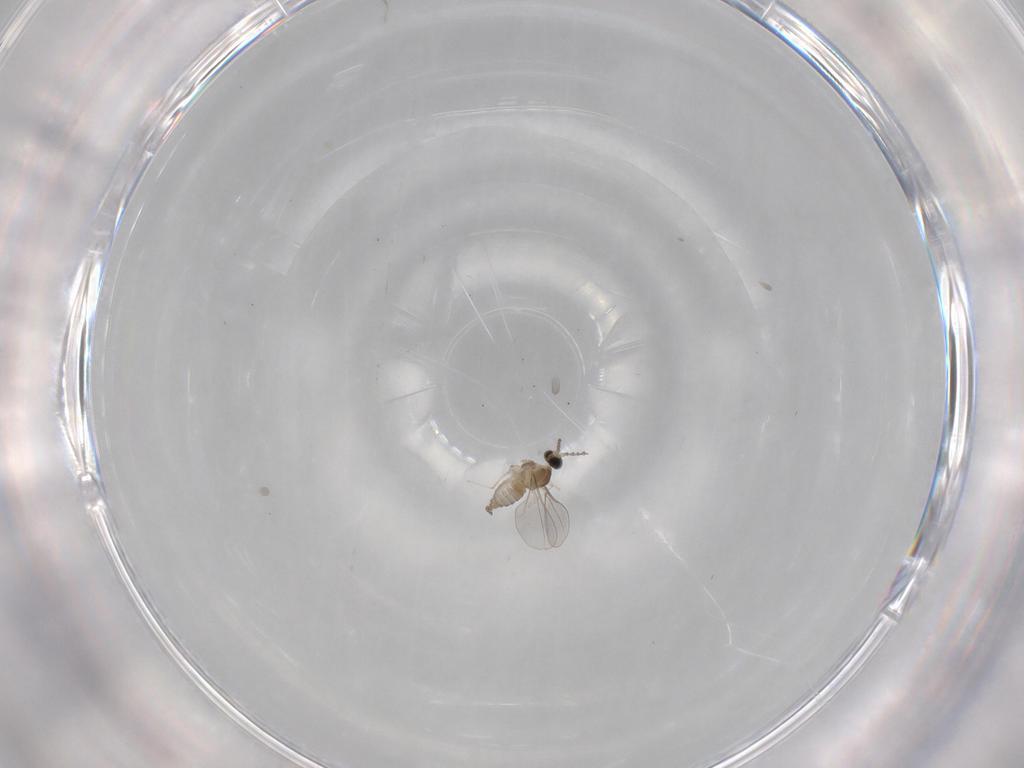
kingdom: Animalia
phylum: Arthropoda
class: Insecta
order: Diptera
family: Cecidomyiidae
